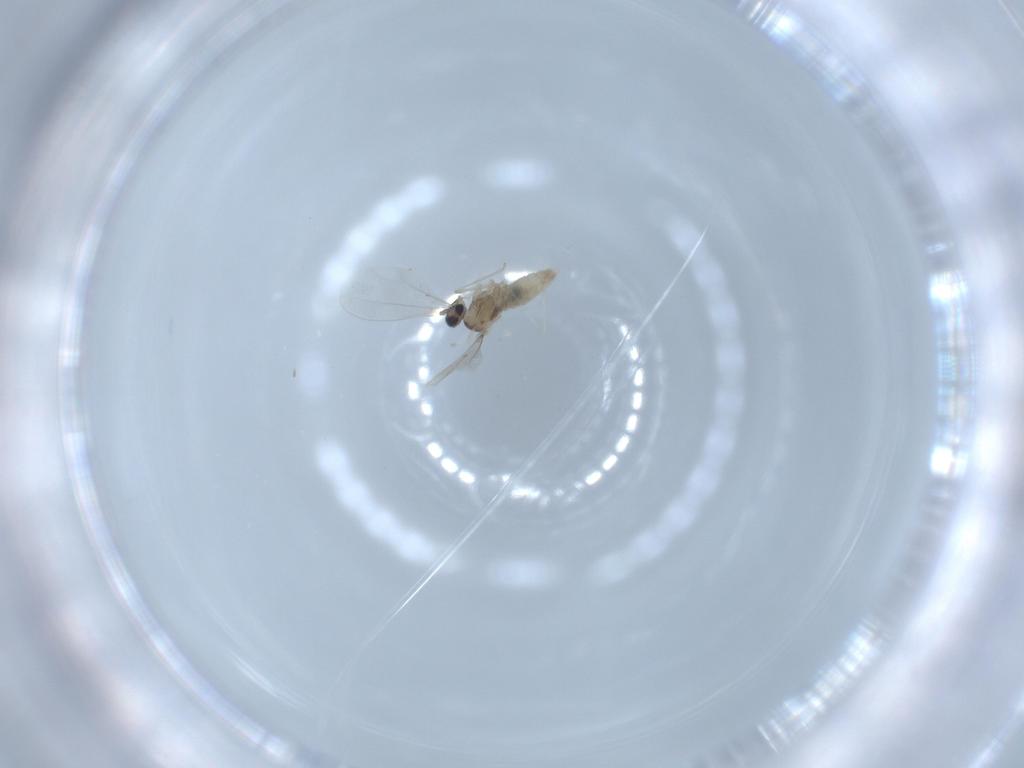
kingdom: Animalia
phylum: Arthropoda
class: Insecta
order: Diptera
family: Cecidomyiidae
